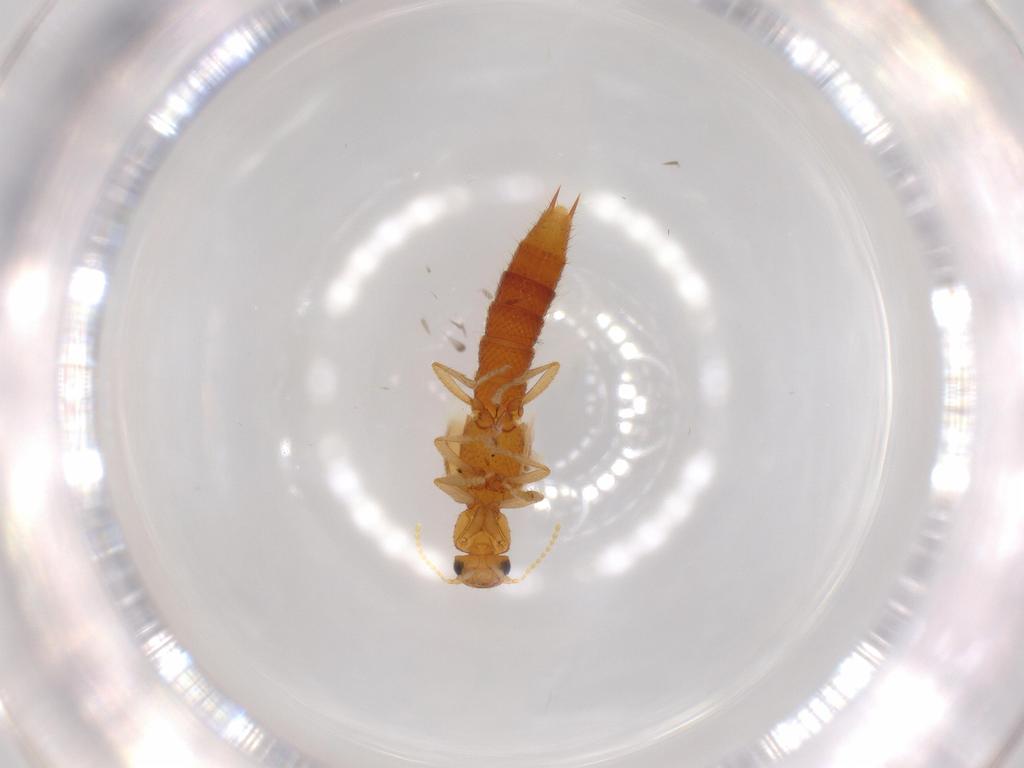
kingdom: Animalia
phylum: Arthropoda
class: Insecta
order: Coleoptera
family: Staphylinidae
